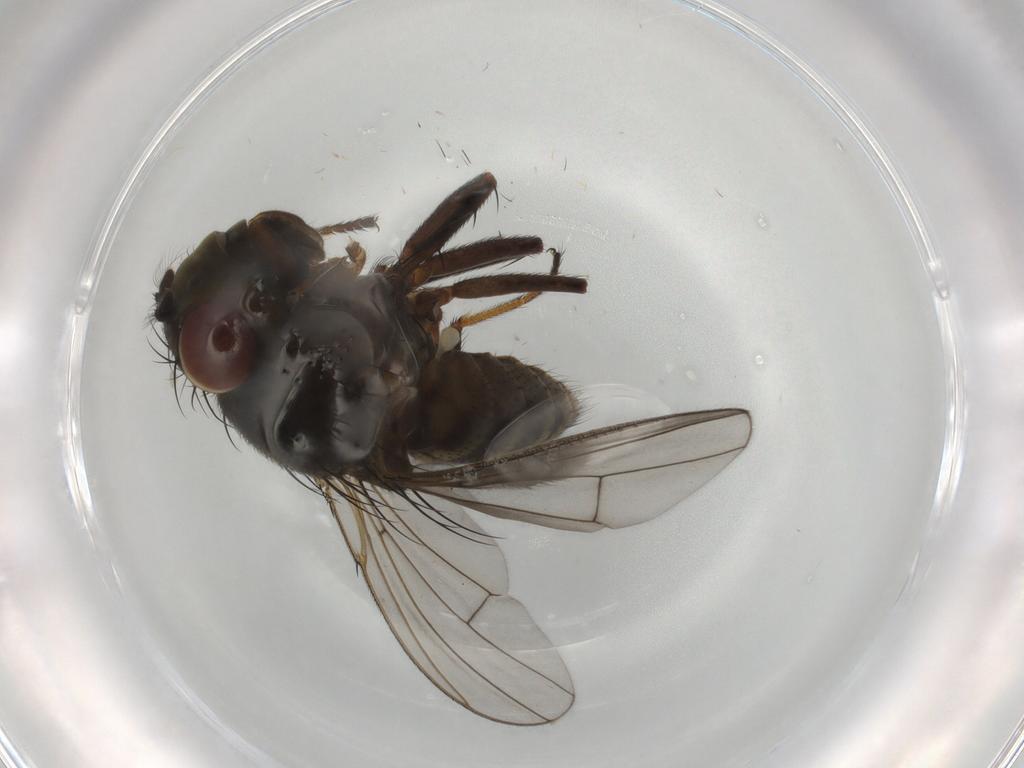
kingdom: Animalia
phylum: Arthropoda
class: Insecta
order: Diptera
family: Ephydridae
